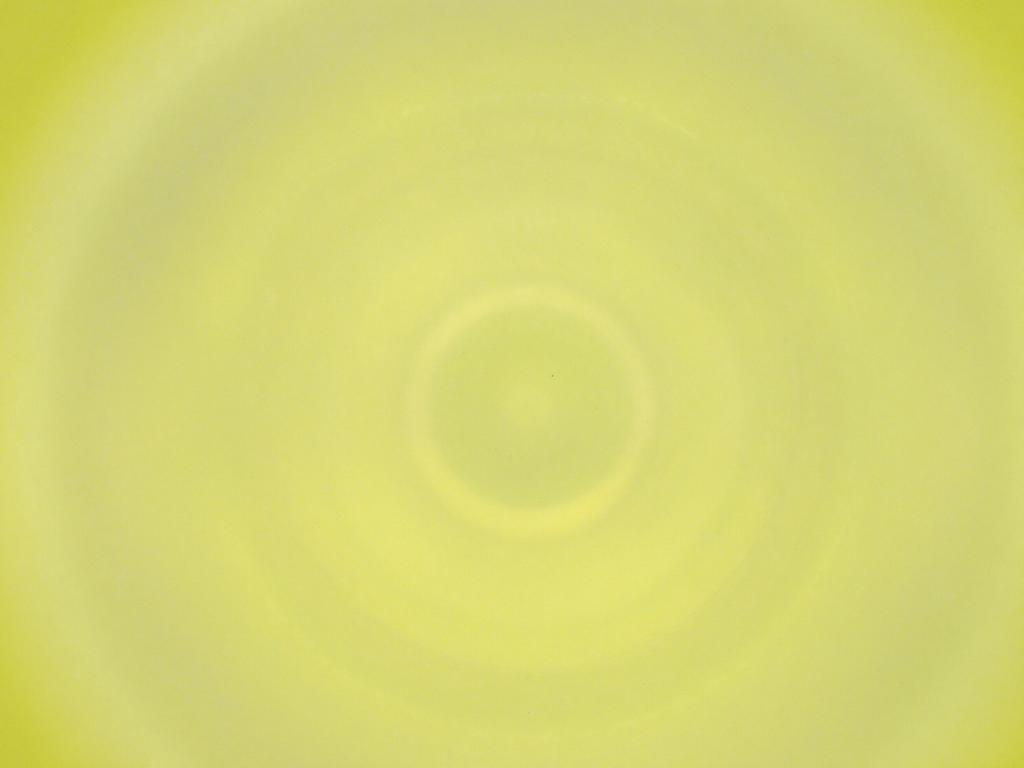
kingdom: Animalia
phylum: Arthropoda
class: Insecta
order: Diptera
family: Cecidomyiidae
